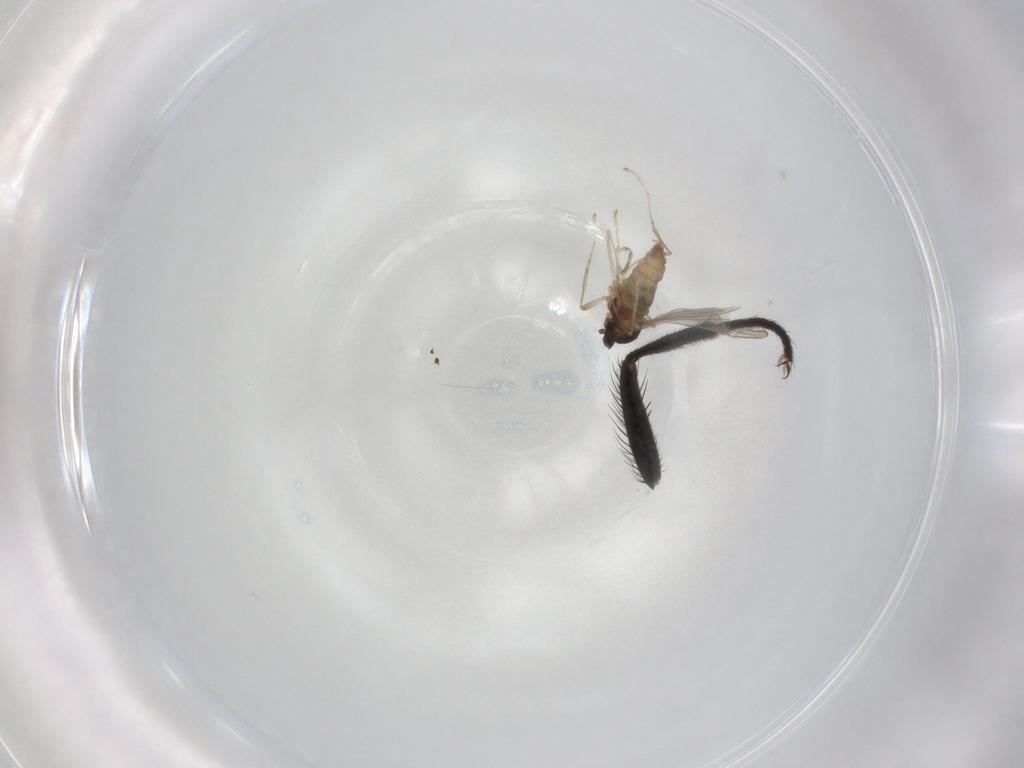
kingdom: Animalia
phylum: Arthropoda
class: Insecta
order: Diptera
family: Cecidomyiidae
